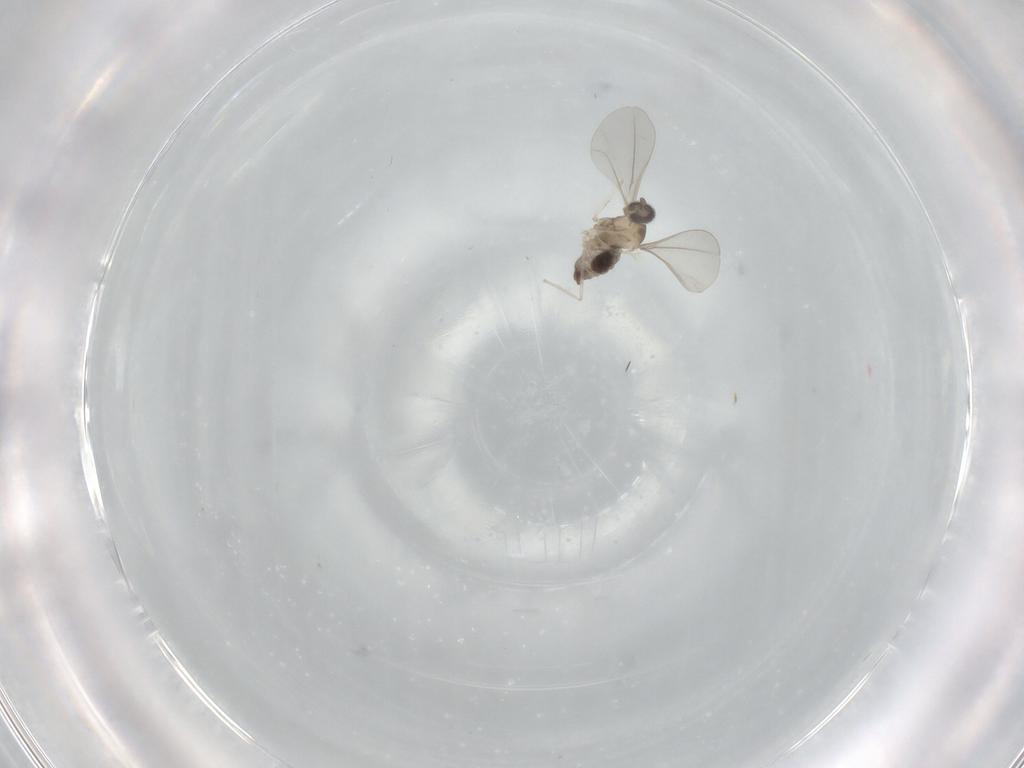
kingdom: Animalia
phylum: Arthropoda
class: Insecta
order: Diptera
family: Cecidomyiidae
